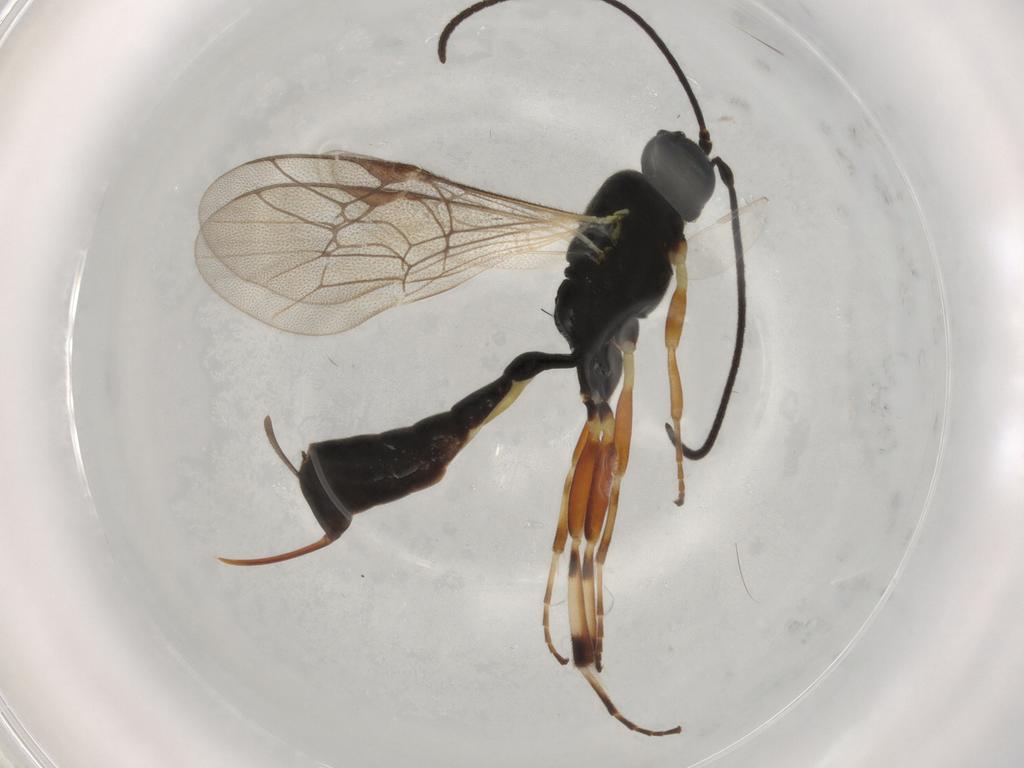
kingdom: Animalia
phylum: Arthropoda
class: Insecta
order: Hymenoptera
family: Ichneumonidae
